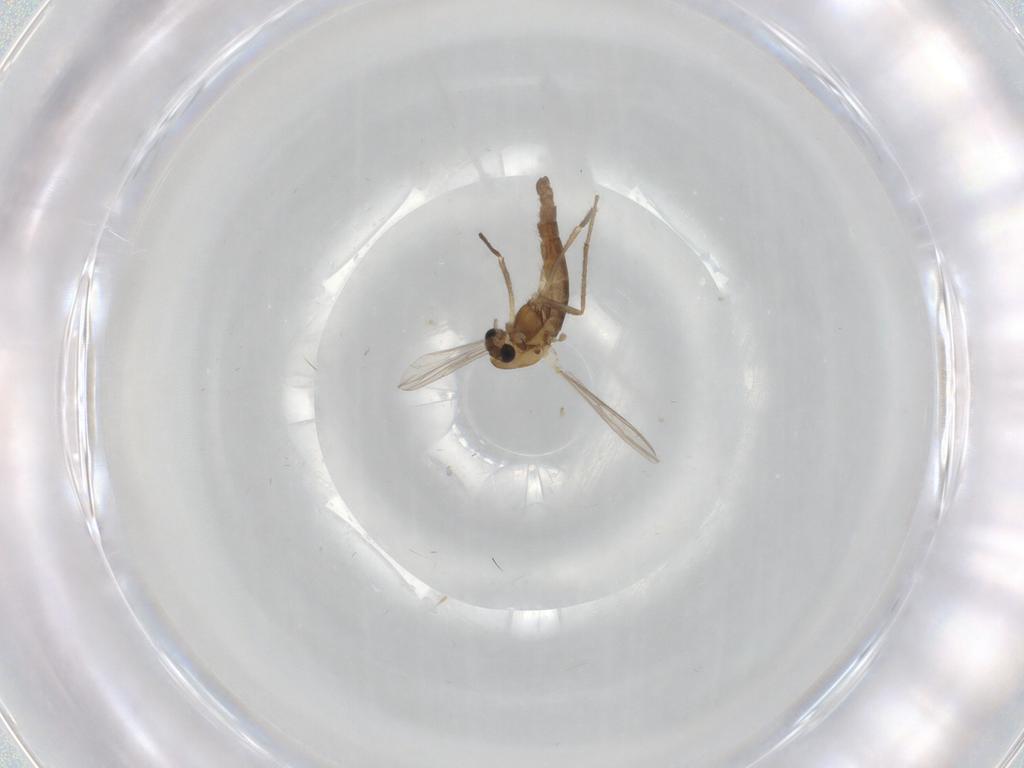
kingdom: Animalia
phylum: Arthropoda
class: Insecta
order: Diptera
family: Chironomidae
